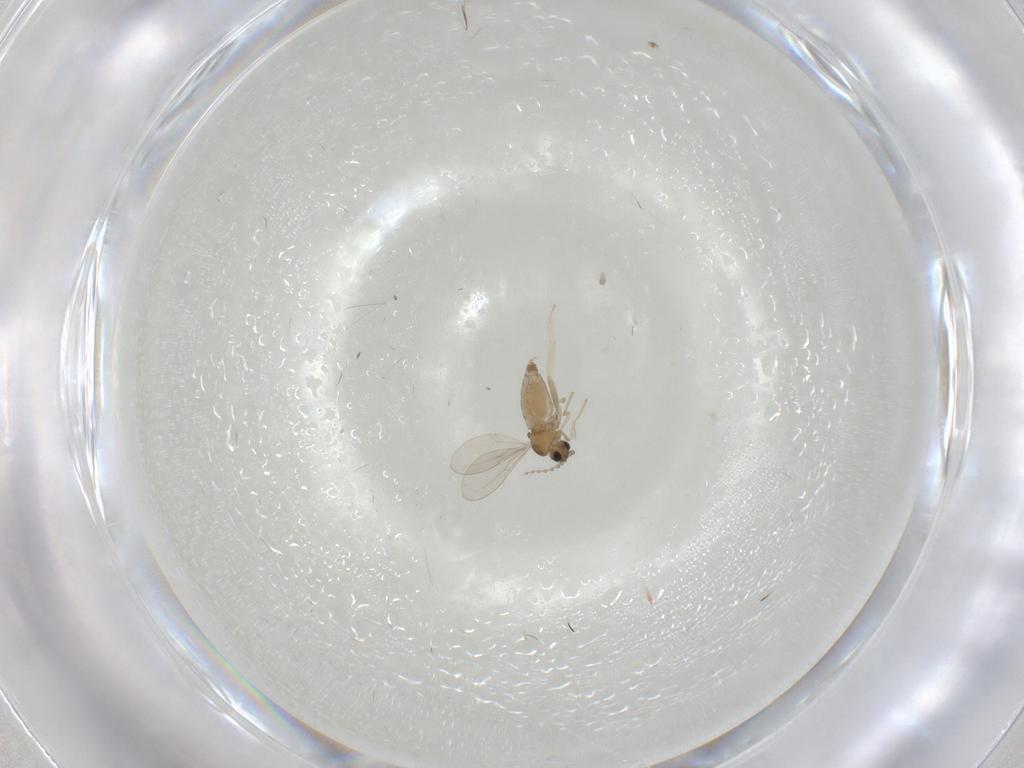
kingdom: Animalia
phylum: Arthropoda
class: Insecta
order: Diptera
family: Cecidomyiidae
